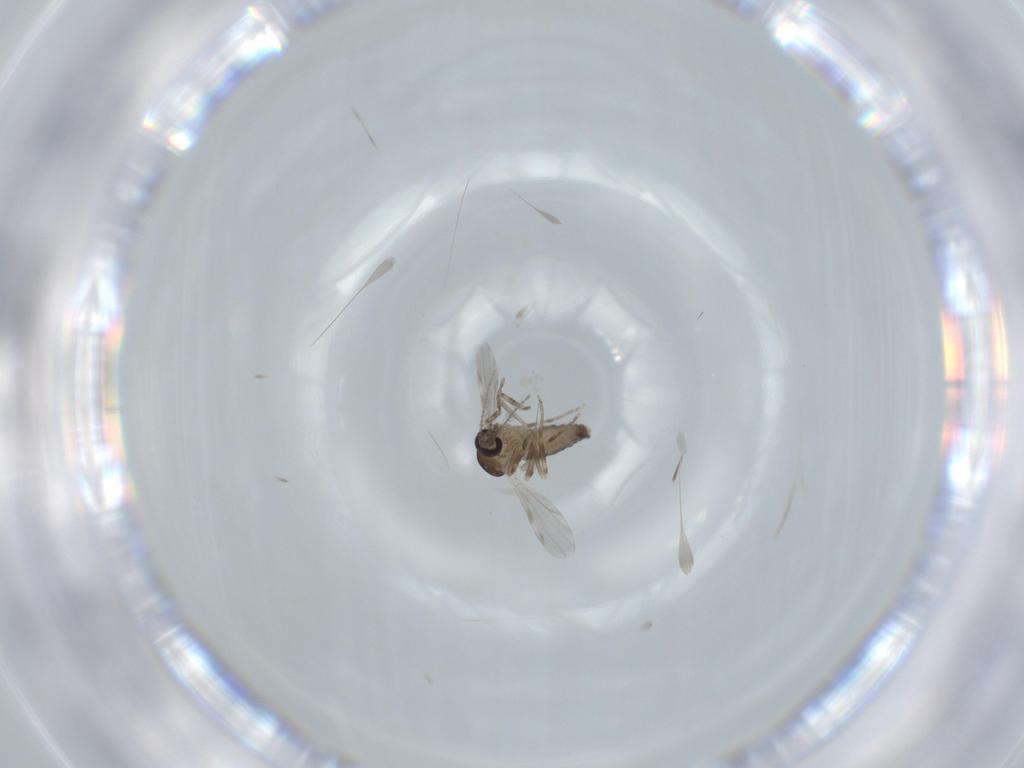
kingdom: Animalia
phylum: Arthropoda
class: Insecta
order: Diptera
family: Ceratopogonidae
